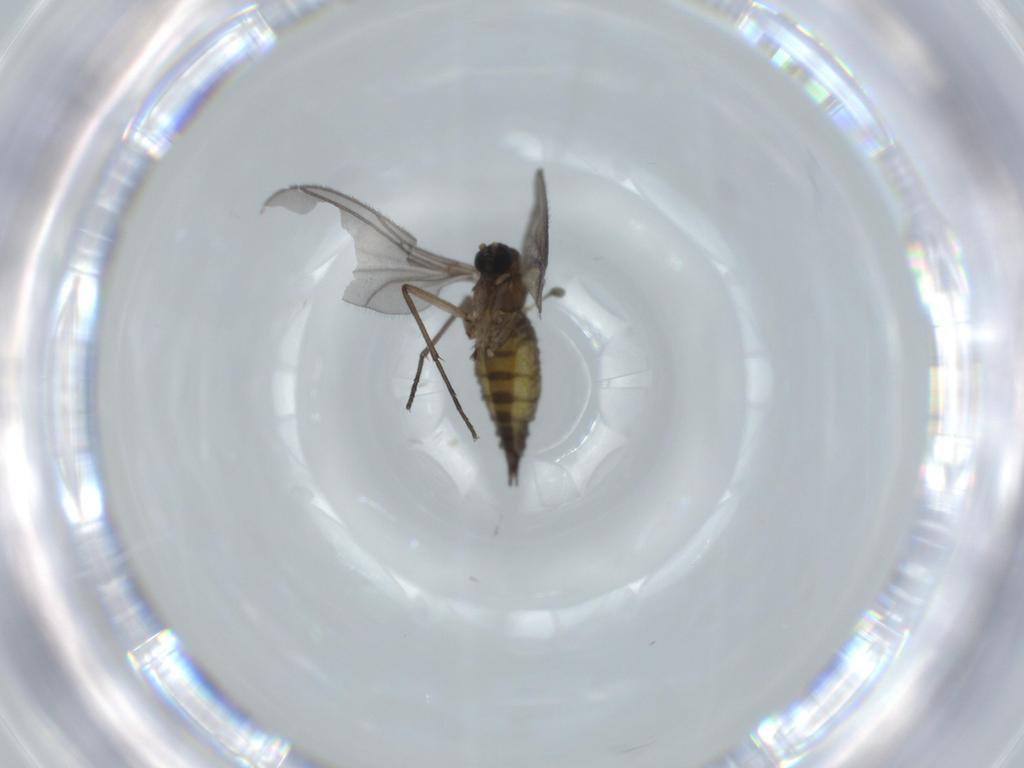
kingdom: Animalia
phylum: Arthropoda
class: Insecta
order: Diptera
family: Sciaridae
